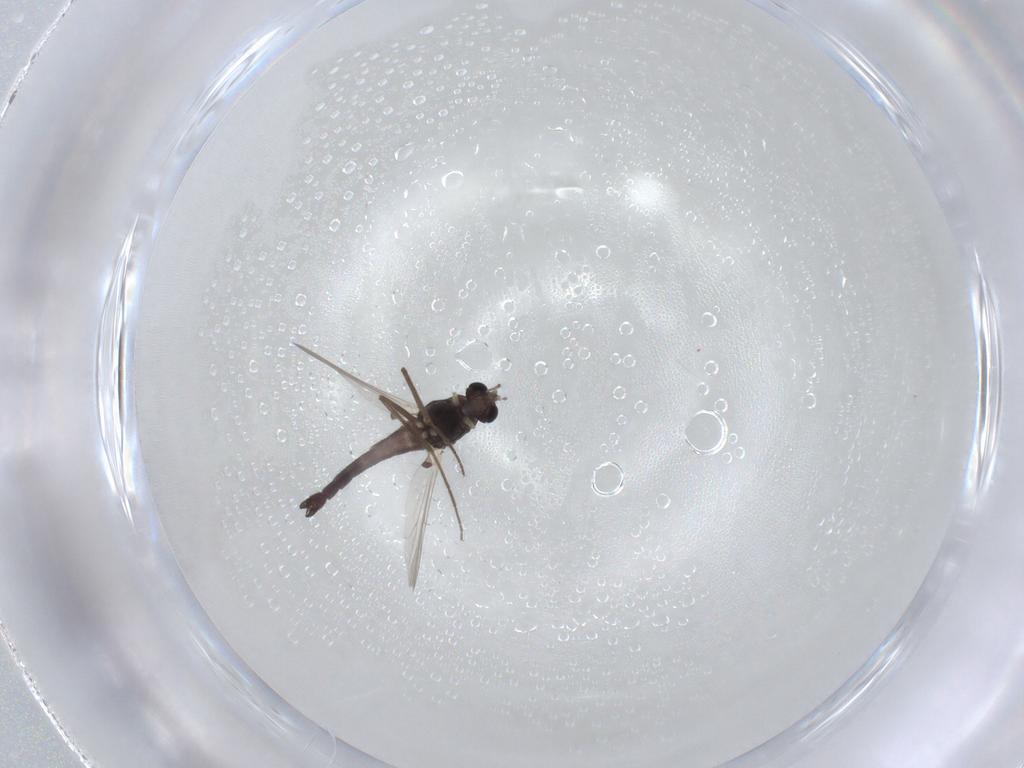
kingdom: Animalia
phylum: Arthropoda
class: Insecta
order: Diptera
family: Chironomidae
